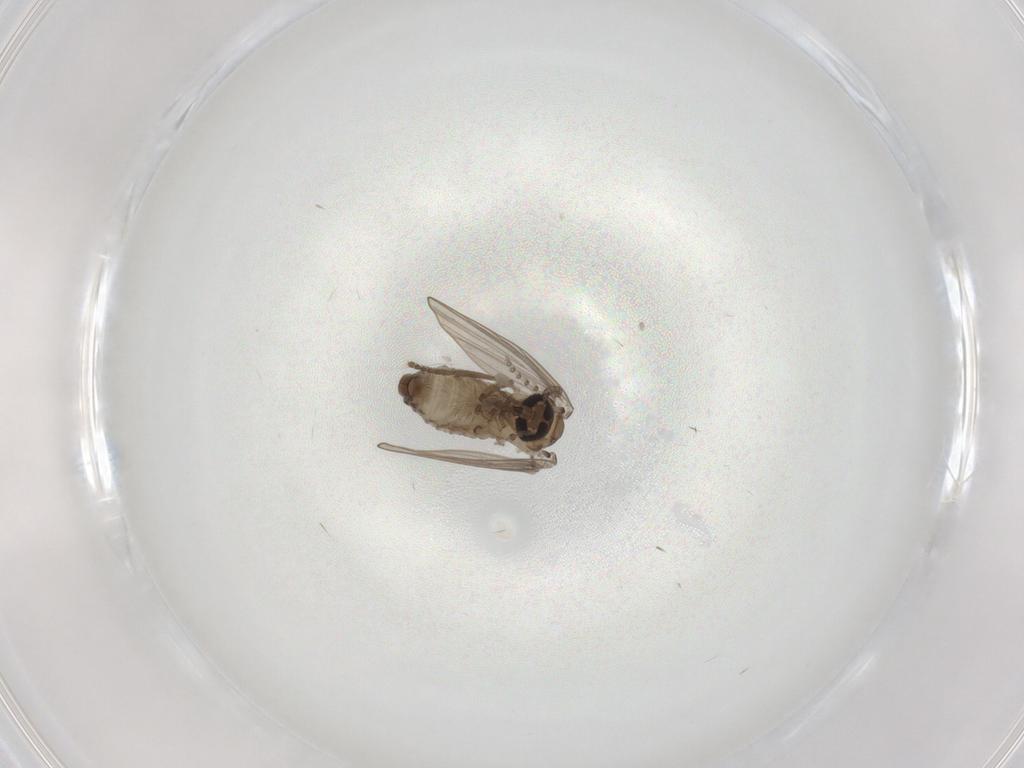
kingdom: Animalia
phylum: Arthropoda
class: Insecta
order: Diptera
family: Psychodidae
